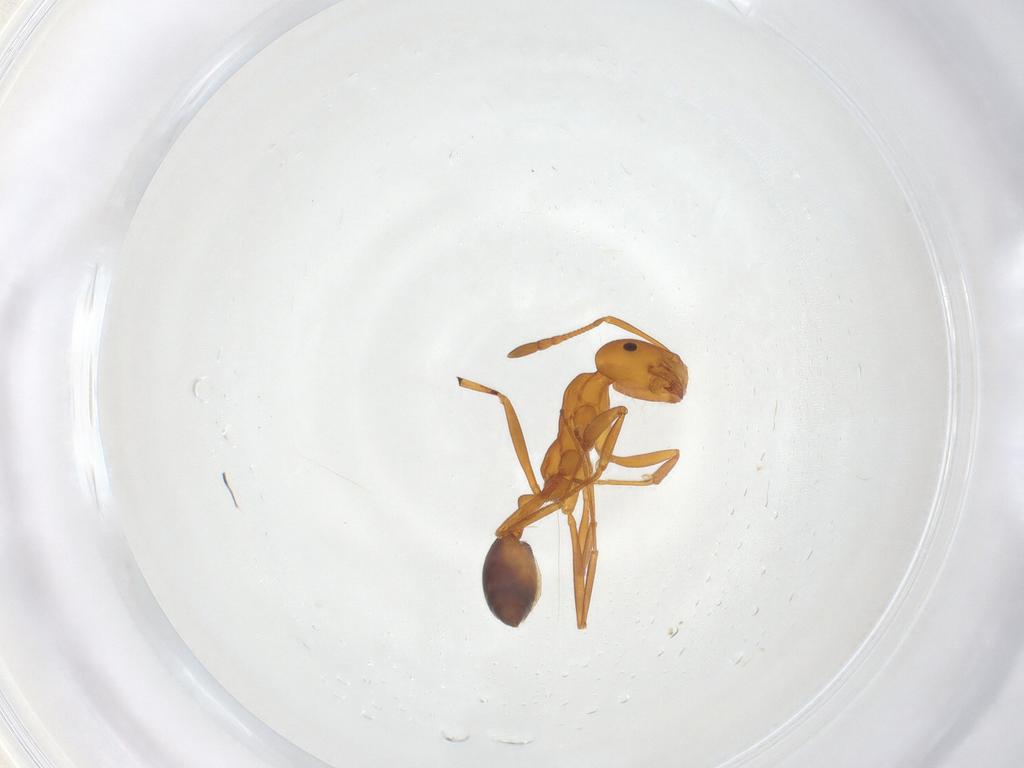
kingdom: Animalia
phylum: Arthropoda
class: Insecta
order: Hymenoptera
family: Formicidae
